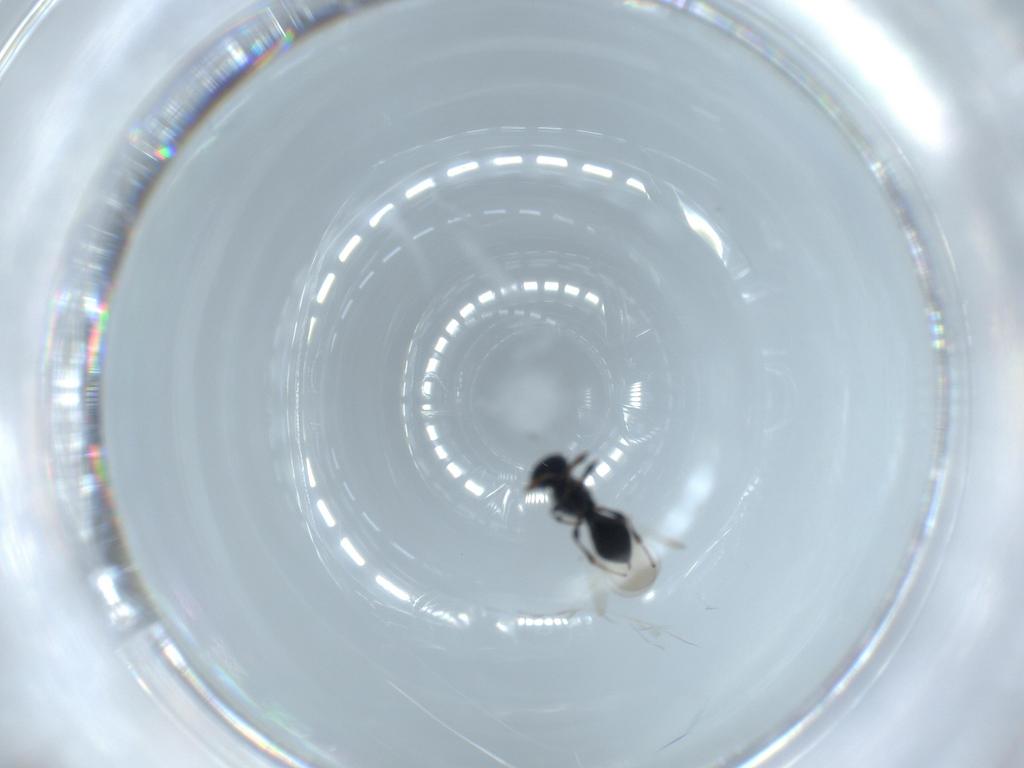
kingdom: Animalia
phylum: Arthropoda
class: Insecta
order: Hymenoptera
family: Platygastridae
